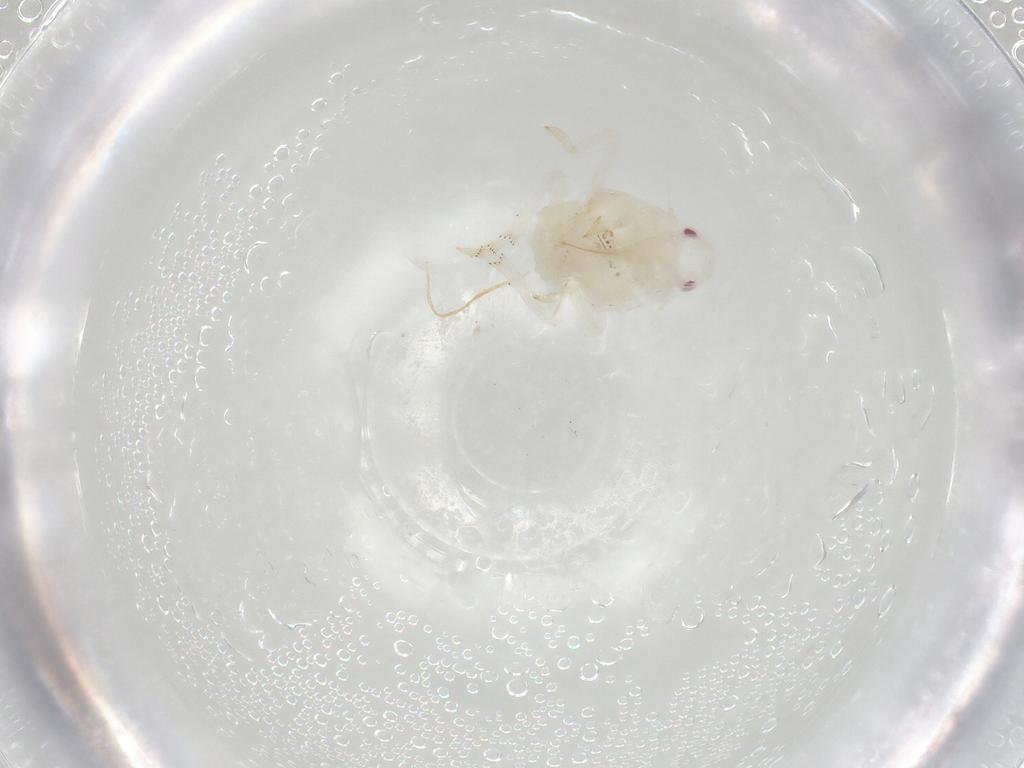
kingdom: Animalia
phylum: Arthropoda
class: Insecta
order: Hemiptera
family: Flatidae
